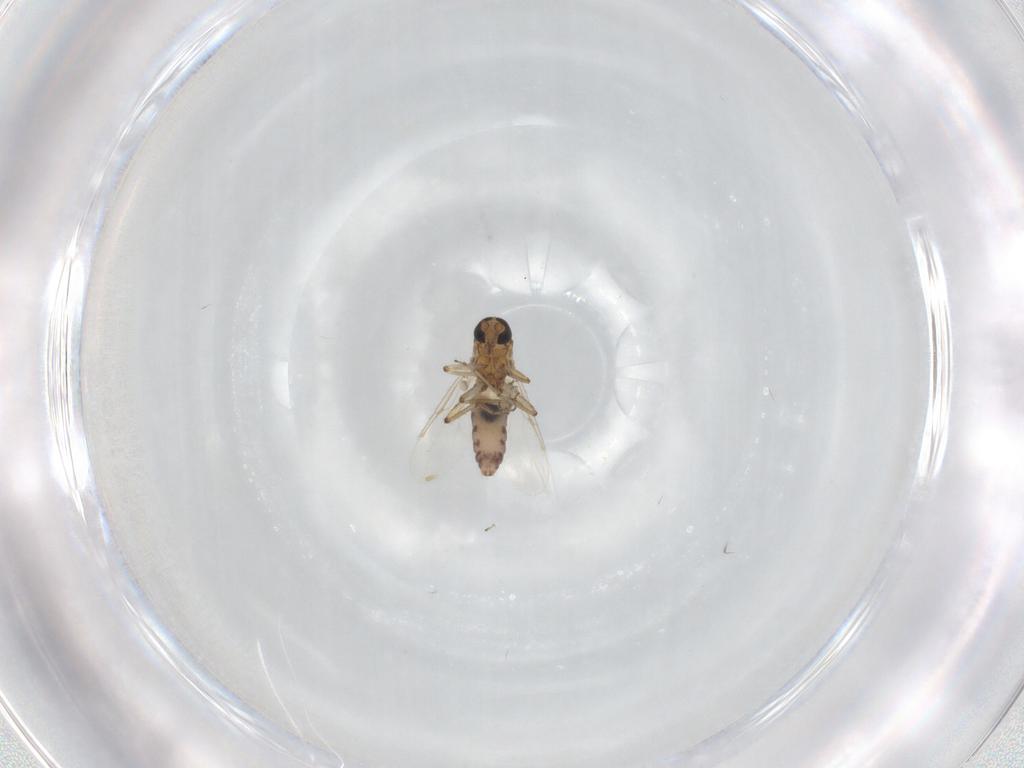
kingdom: Animalia
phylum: Arthropoda
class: Insecta
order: Diptera
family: Ceratopogonidae
